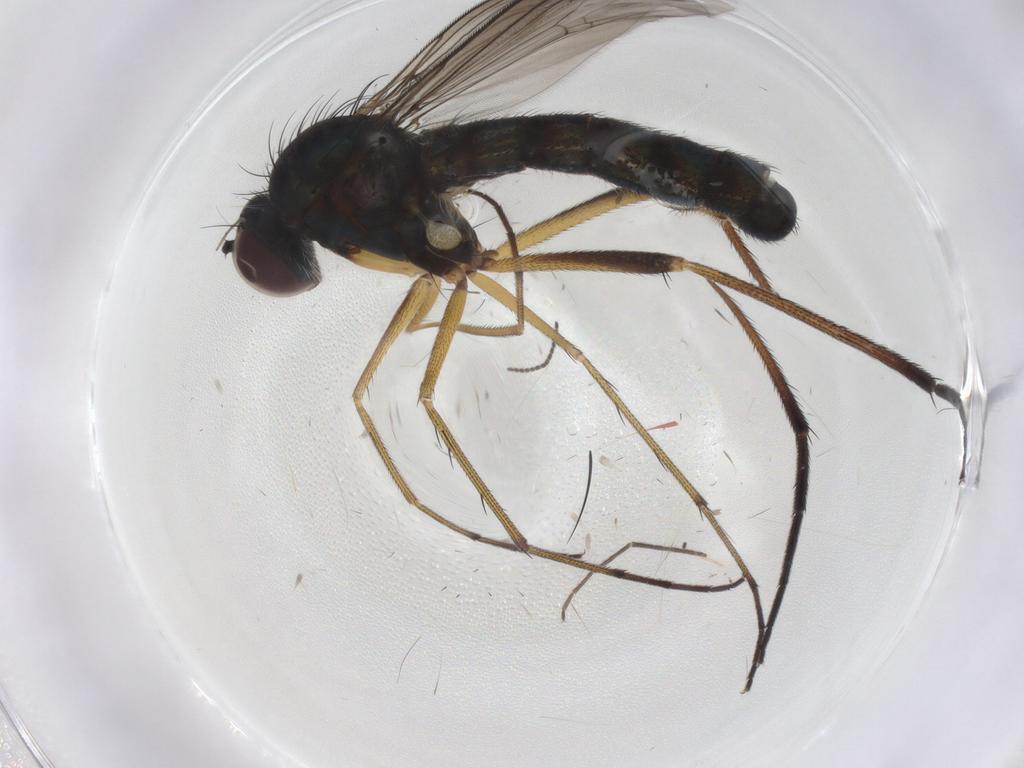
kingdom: Animalia
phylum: Arthropoda
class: Insecta
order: Diptera
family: Dolichopodidae
